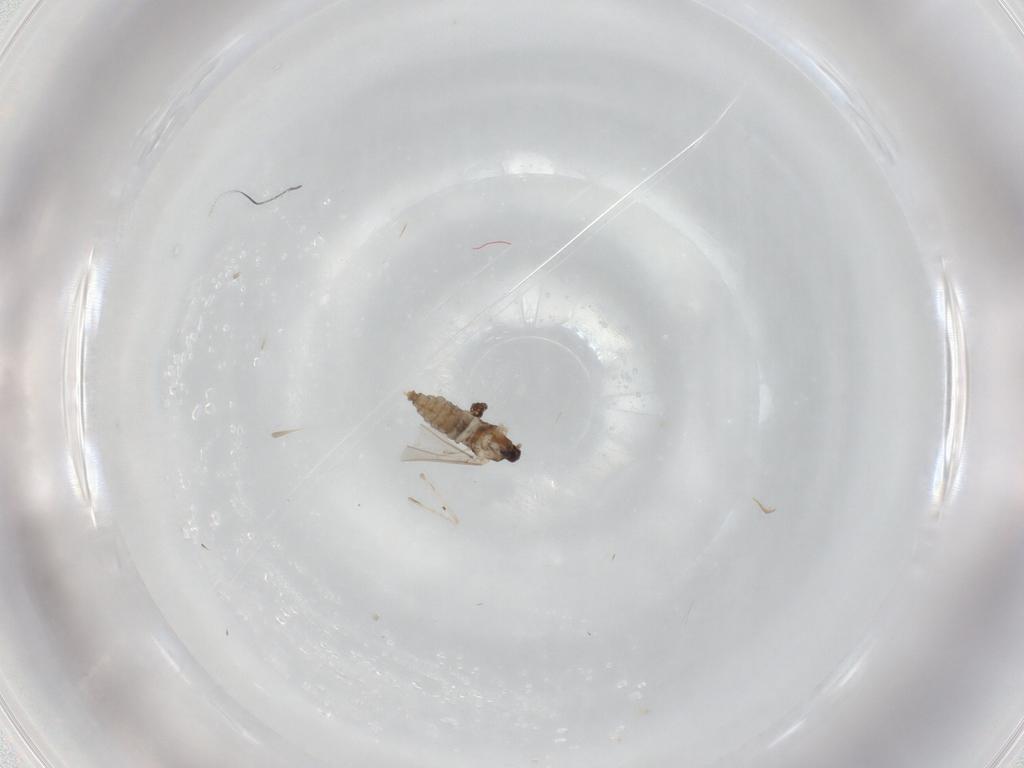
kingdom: Animalia
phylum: Arthropoda
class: Insecta
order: Diptera
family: Cecidomyiidae
